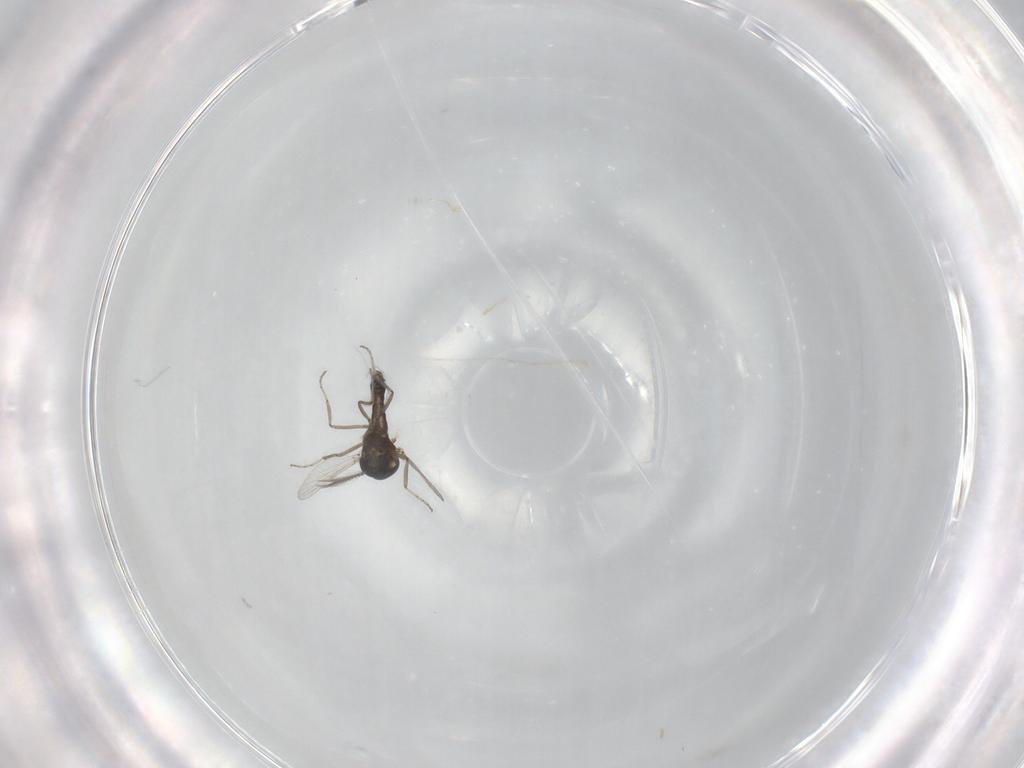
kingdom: Animalia
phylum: Arthropoda
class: Insecta
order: Diptera
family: Ceratopogonidae
